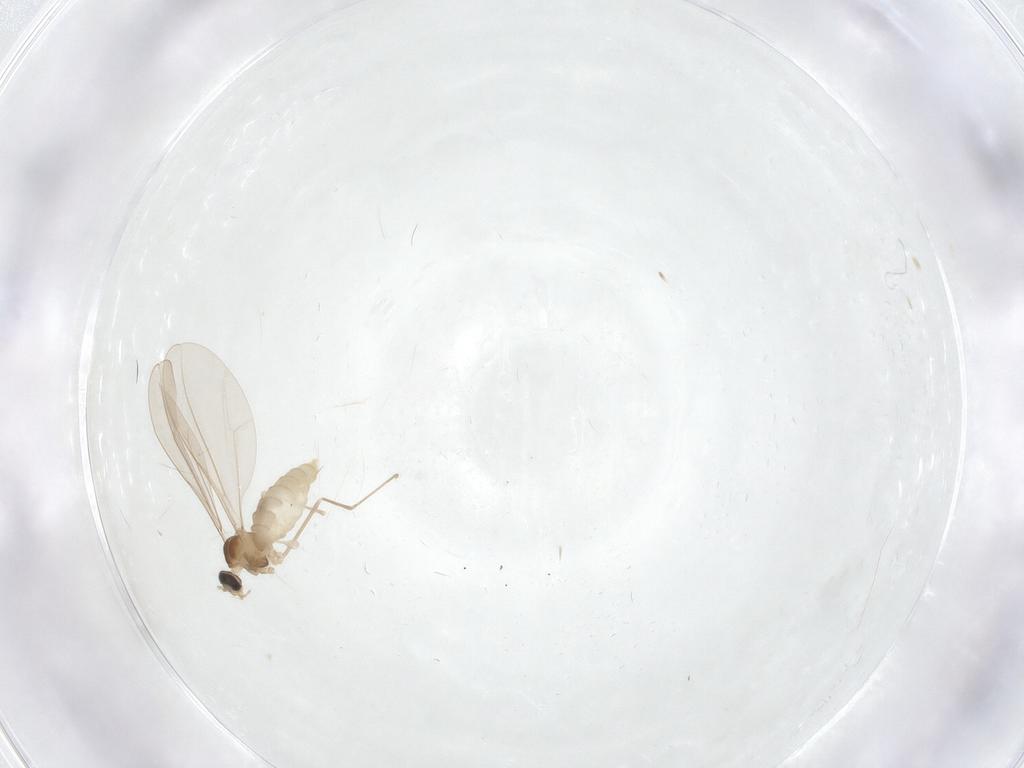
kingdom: Animalia
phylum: Arthropoda
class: Insecta
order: Diptera
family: Cecidomyiidae
